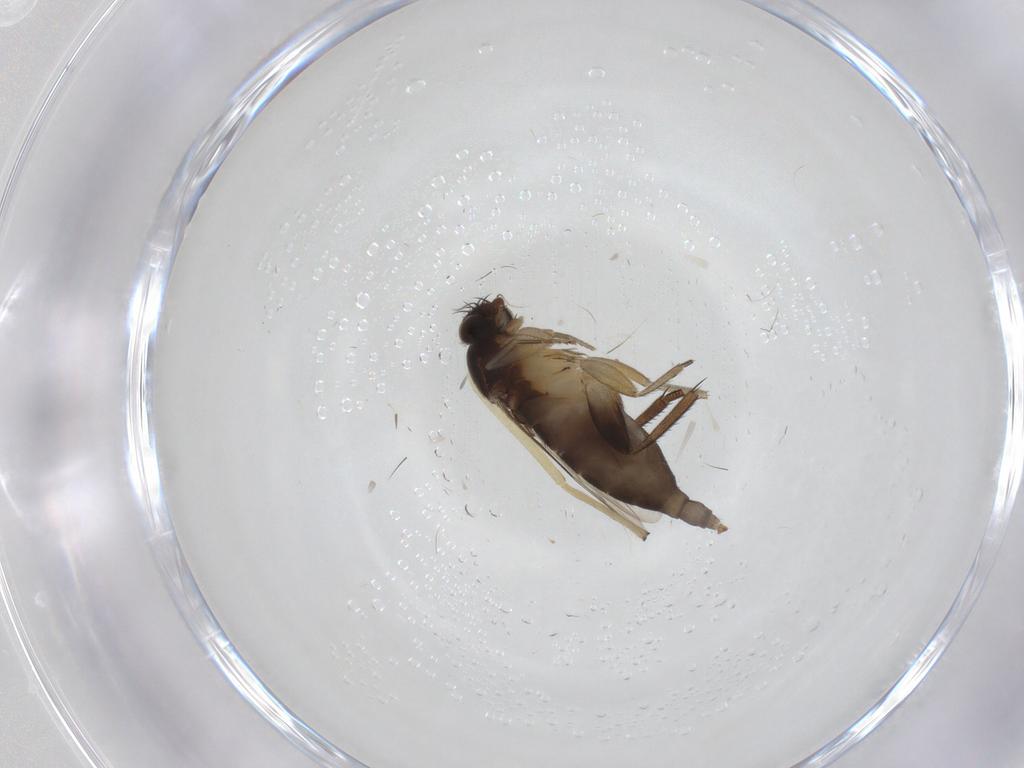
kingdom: Animalia
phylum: Arthropoda
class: Insecta
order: Diptera
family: Phoridae
